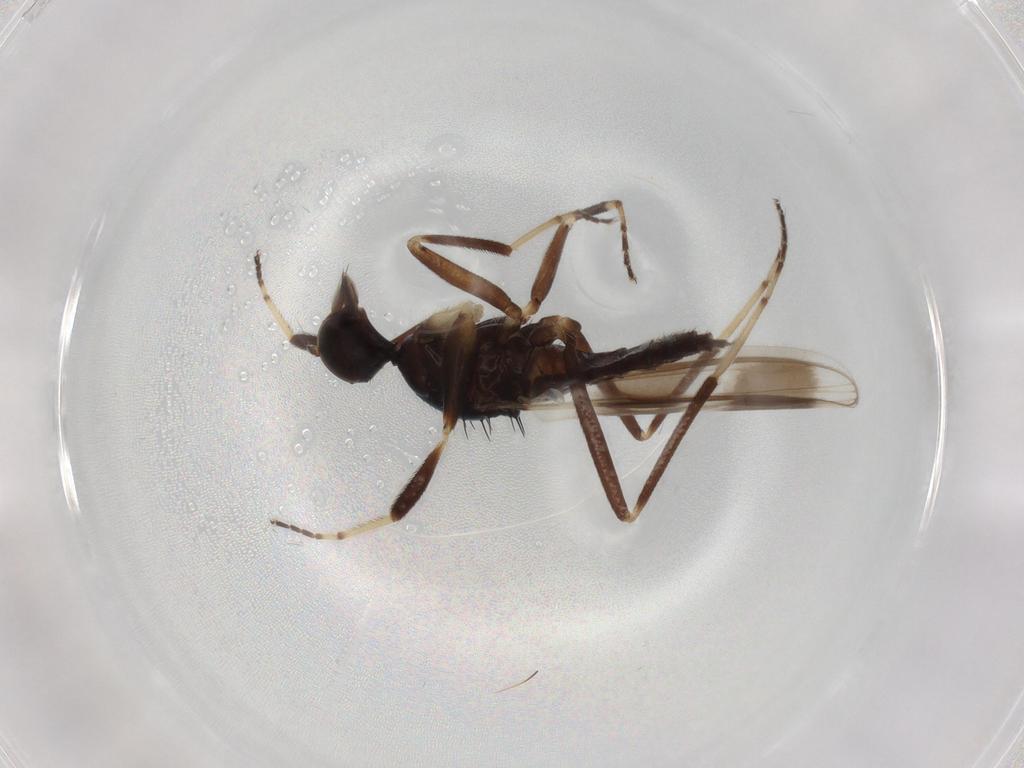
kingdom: Animalia
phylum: Arthropoda
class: Insecta
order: Diptera
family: Hybotidae
